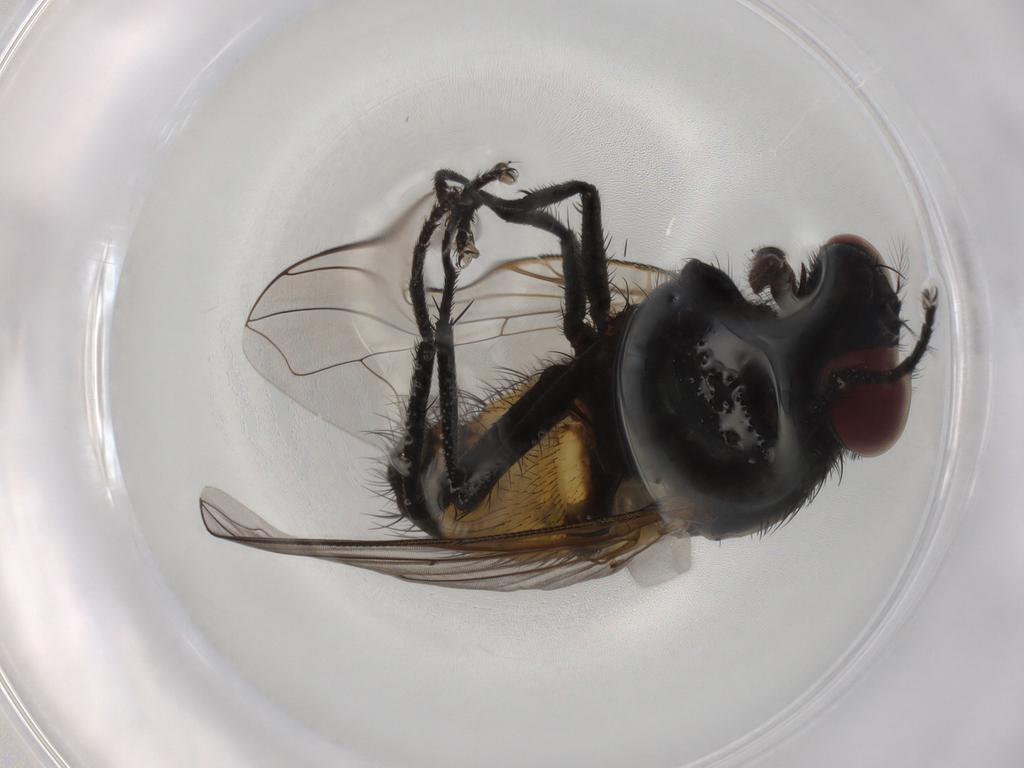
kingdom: Animalia
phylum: Arthropoda
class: Insecta
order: Diptera
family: Muscidae
